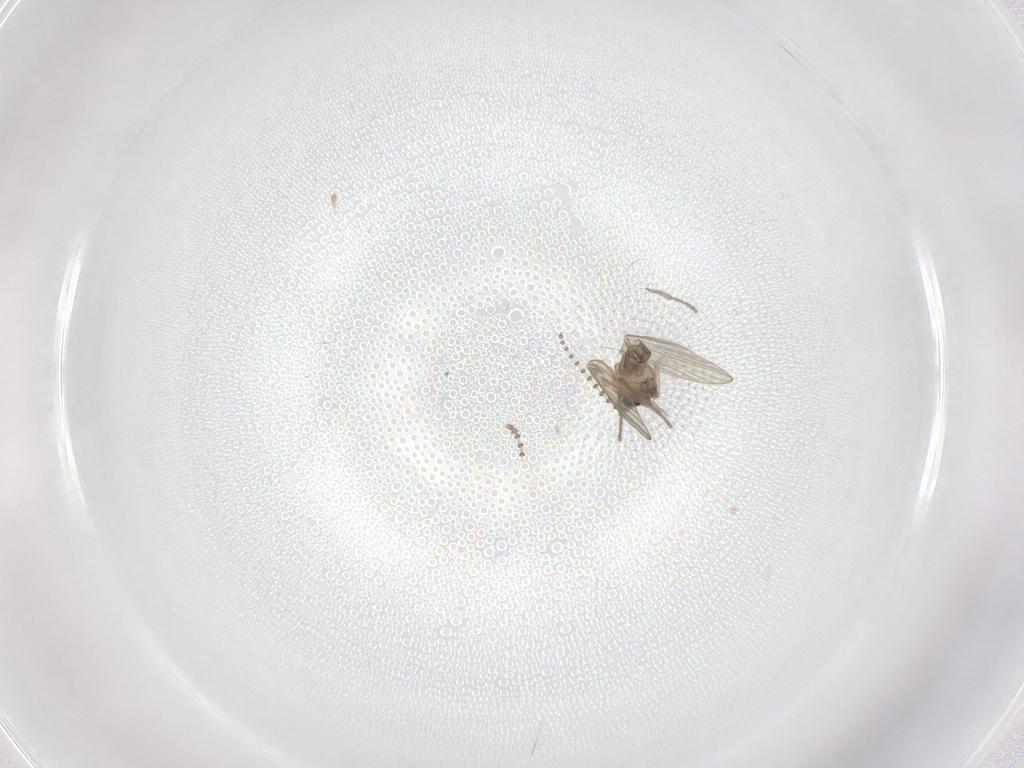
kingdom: Animalia
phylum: Arthropoda
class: Insecta
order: Diptera
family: Psychodidae
